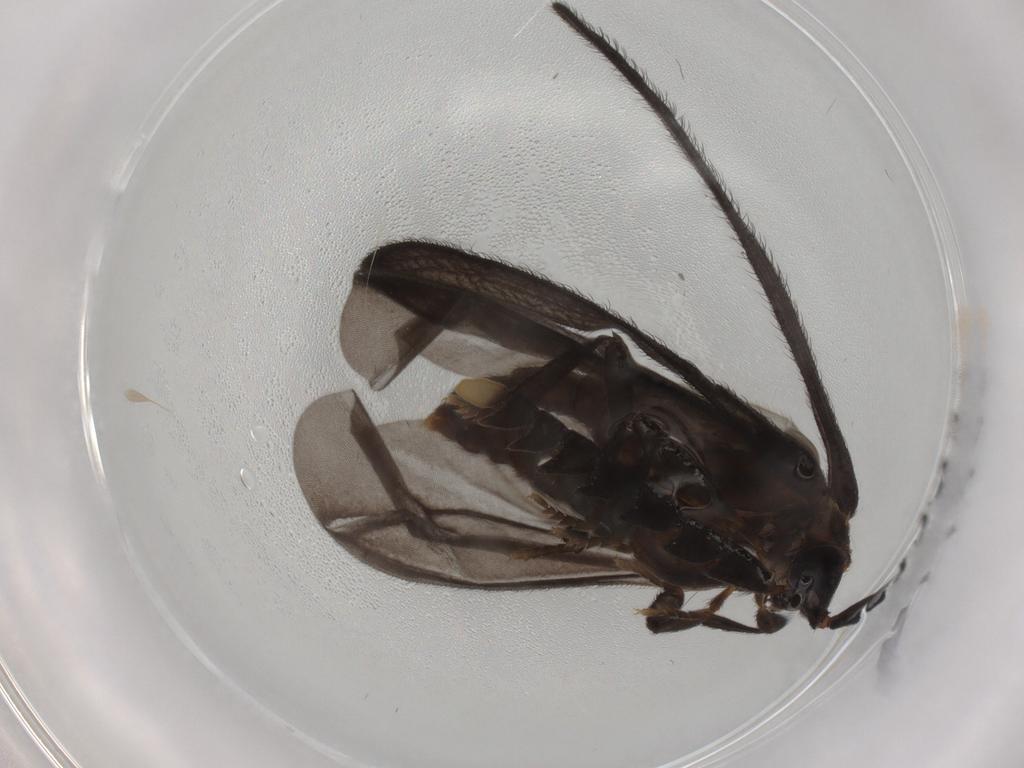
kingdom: Animalia
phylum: Arthropoda
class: Insecta
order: Coleoptera
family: Lycidae
